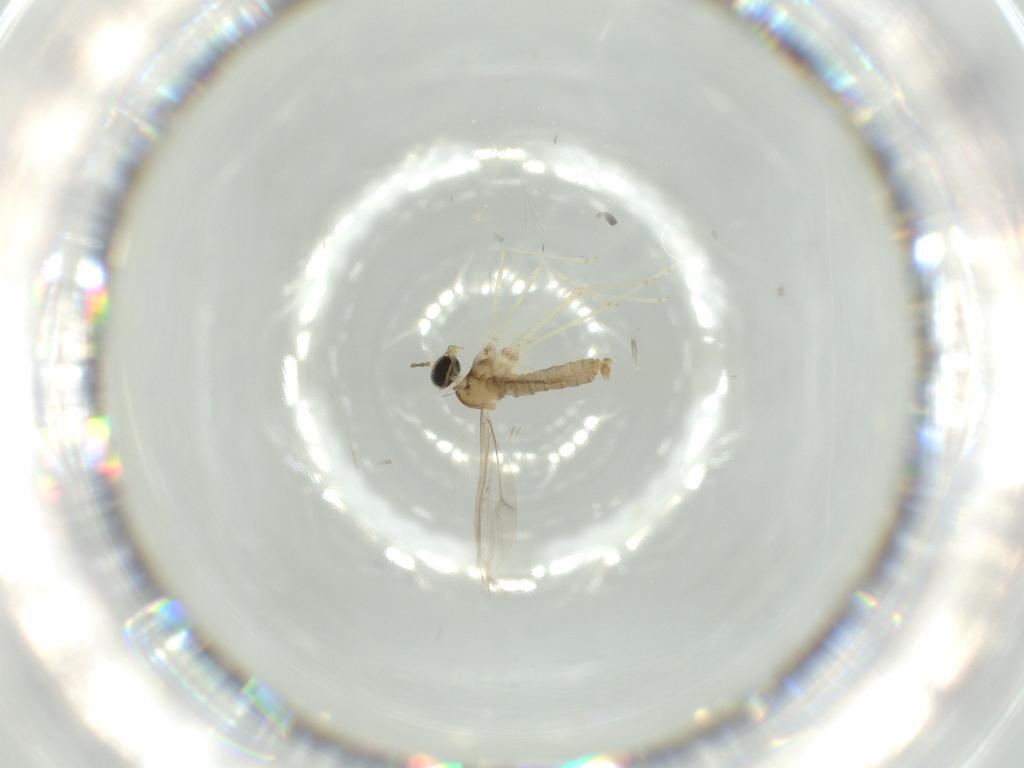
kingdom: Animalia
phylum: Arthropoda
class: Insecta
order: Diptera
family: Cecidomyiidae
